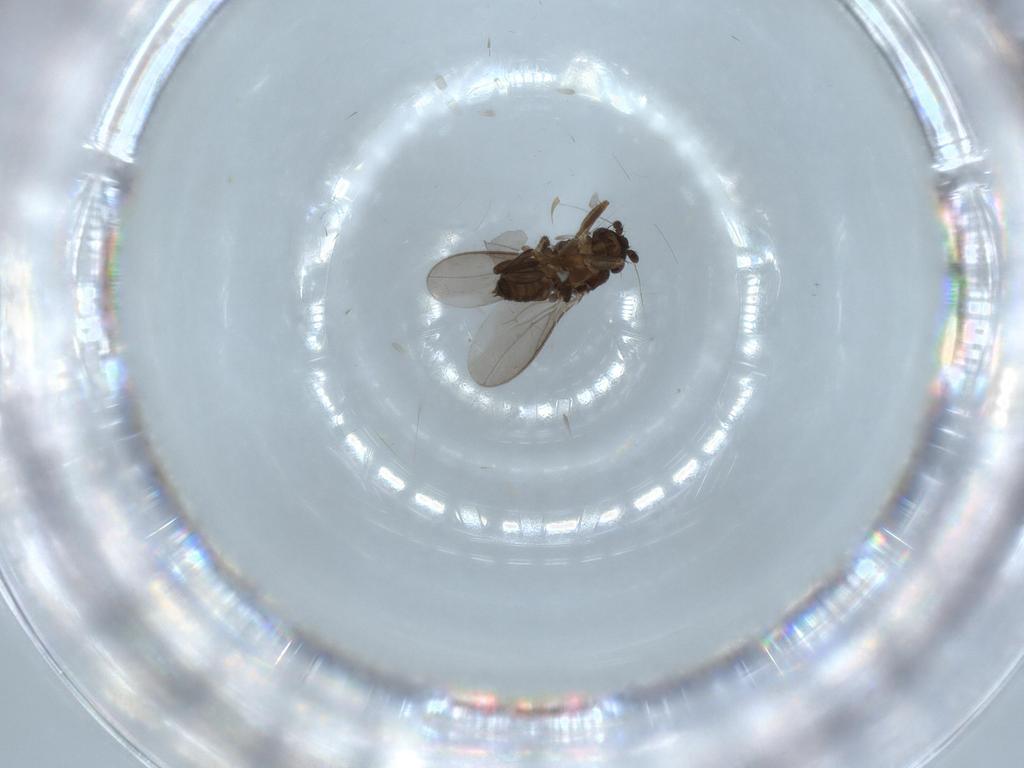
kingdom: Animalia
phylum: Arthropoda
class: Insecta
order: Diptera
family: Sphaeroceridae
